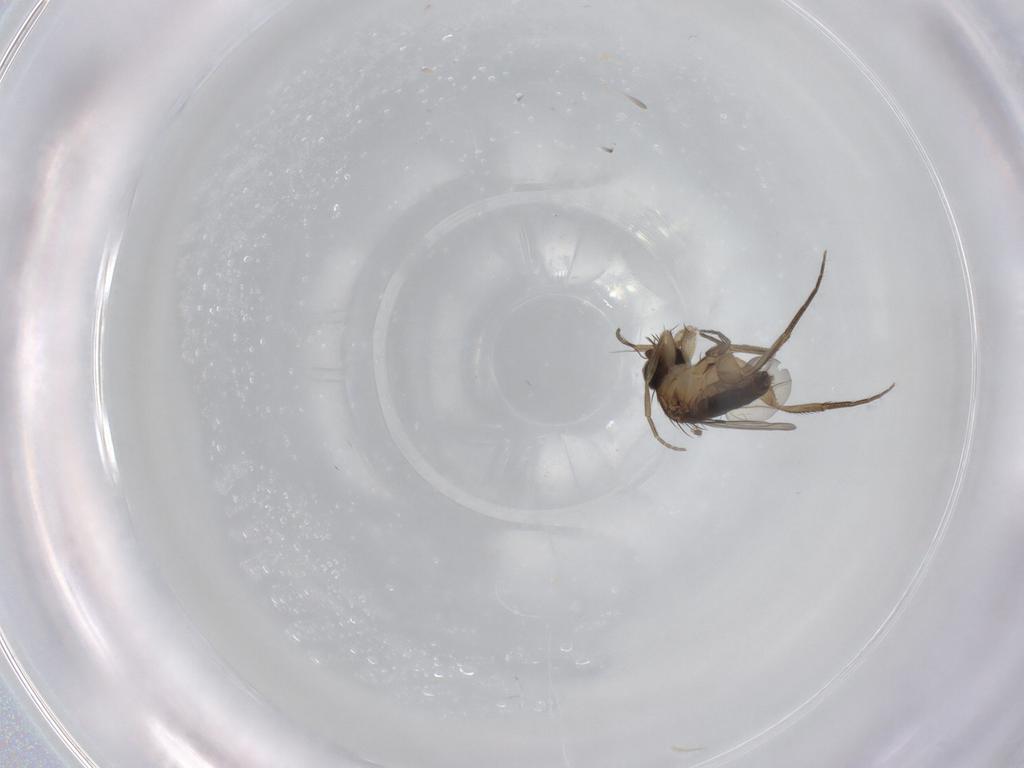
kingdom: Animalia
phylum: Arthropoda
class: Insecta
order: Diptera
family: Phoridae
